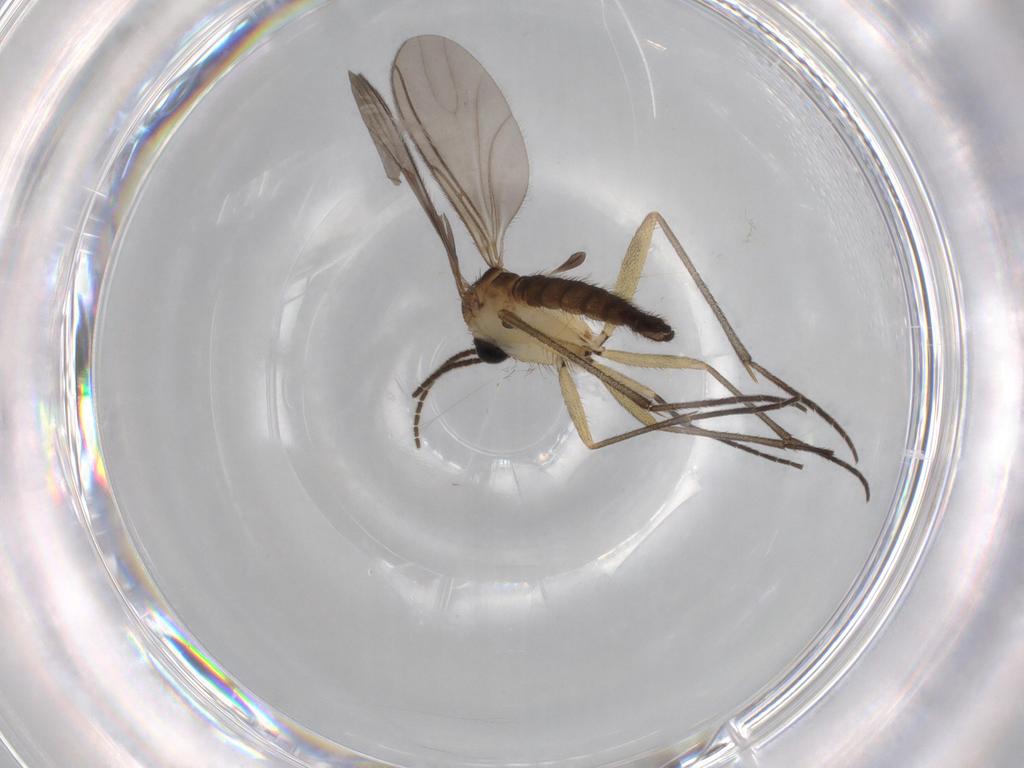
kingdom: Animalia
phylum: Arthropoda
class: Insecta
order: Diptera
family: Sciaridae
